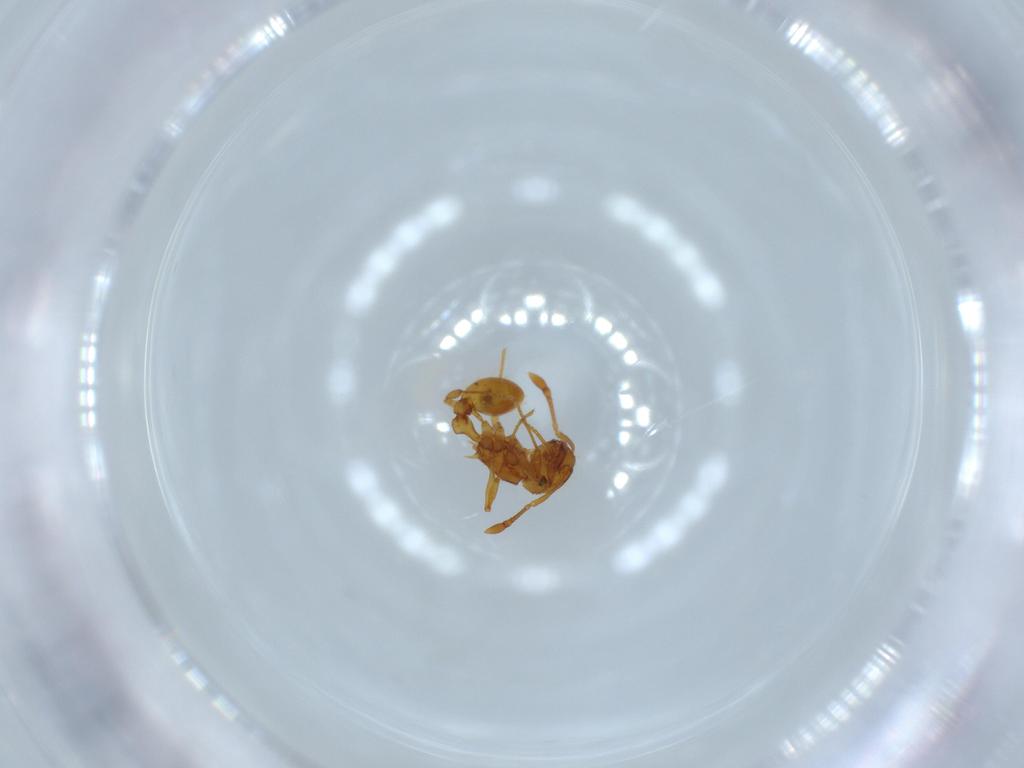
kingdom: Animalia
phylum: Arthropoda
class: Insecta
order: Hymenoptera
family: Formicidae
